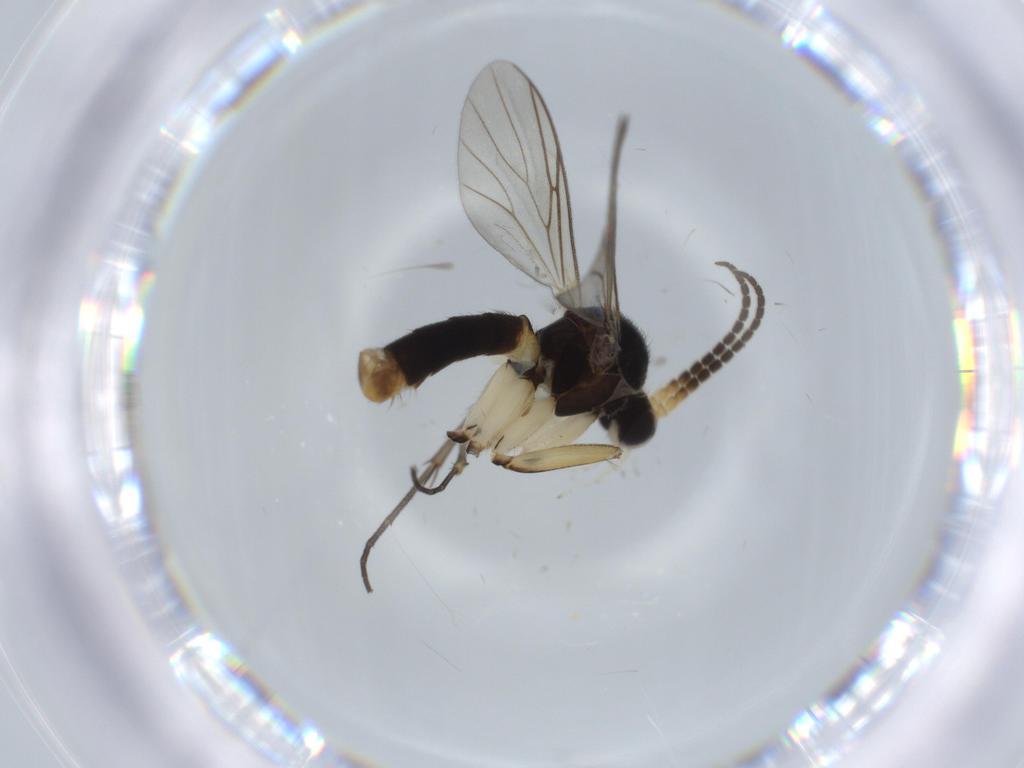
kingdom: Animalia
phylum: Arthropoda
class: Insecta
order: Diptera
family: Cecidomyiidae
